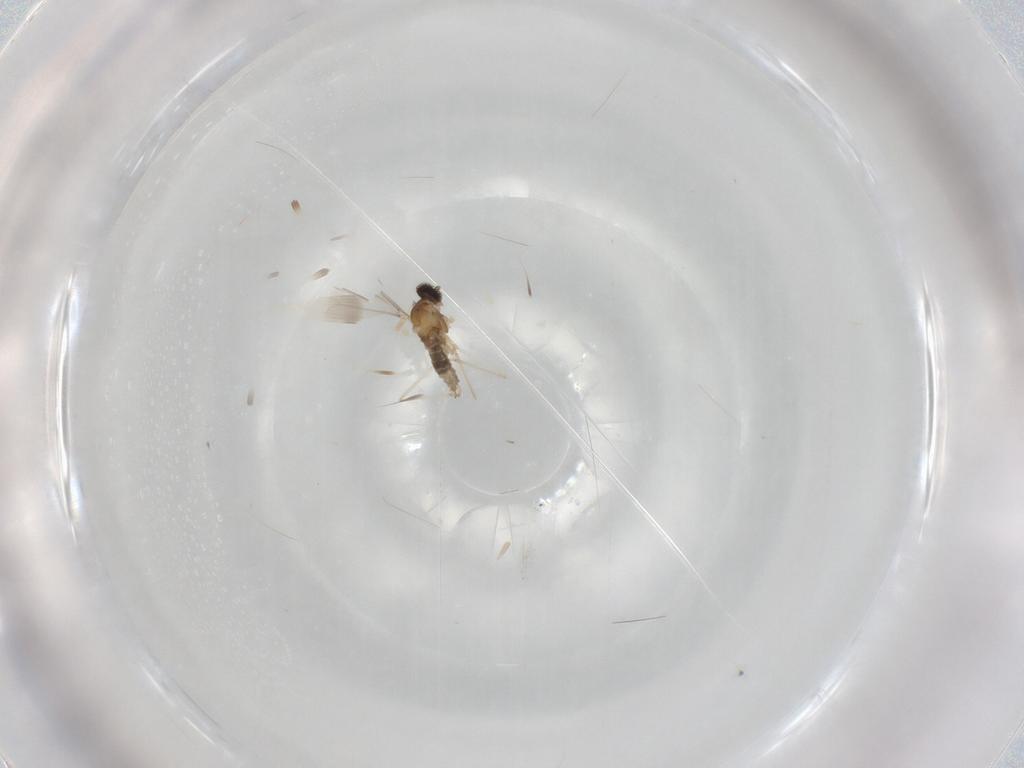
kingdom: Animalia
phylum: Arthropoda
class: Insecta
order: Diptera
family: Cecidomyiidae
